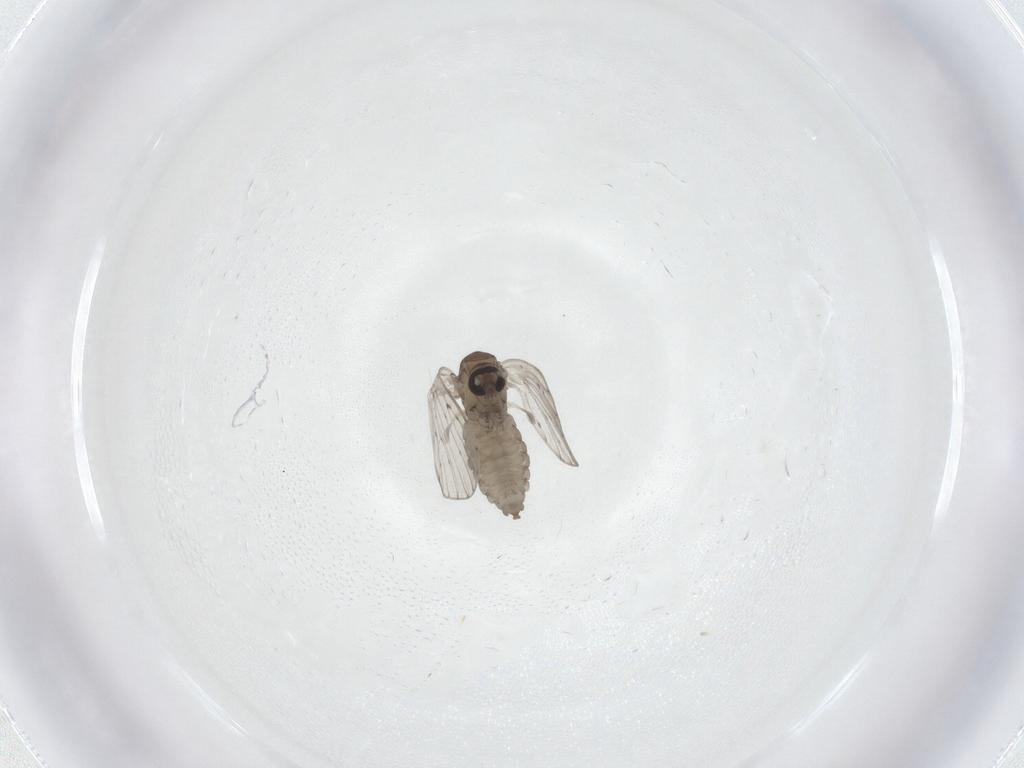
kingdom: Animalia
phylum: Arthropoda
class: Insecta
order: Diptera
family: Psychodidae
